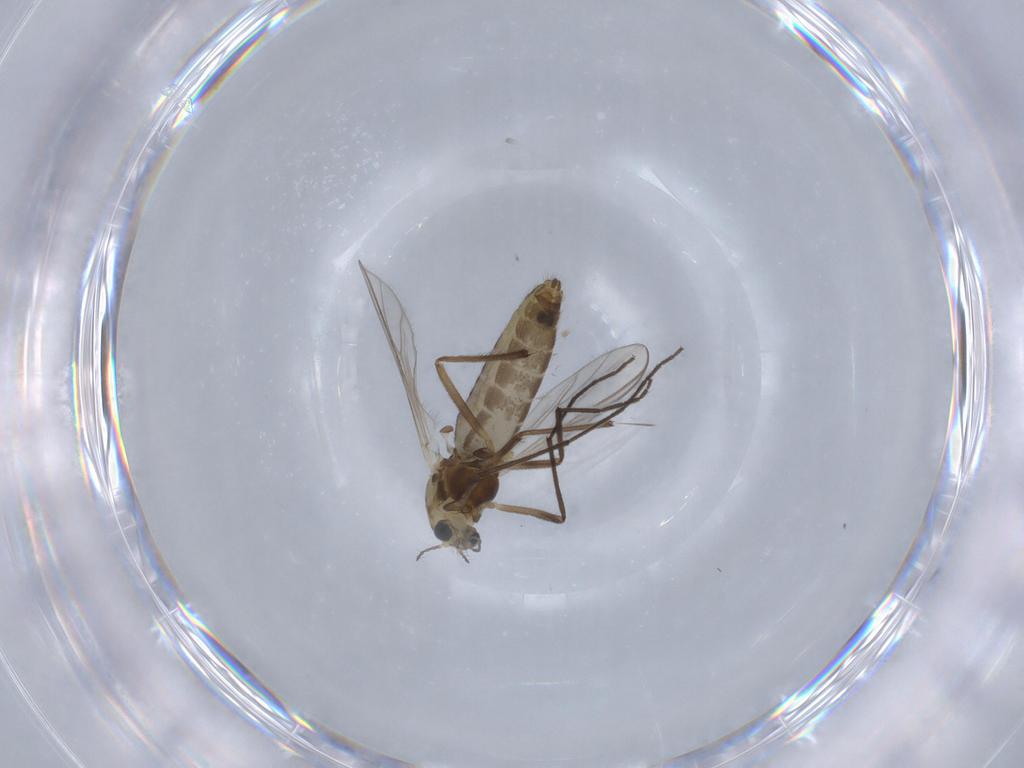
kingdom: Animalia
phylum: Arthropoda
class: Insecta
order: Diptera
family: Chironomidae
